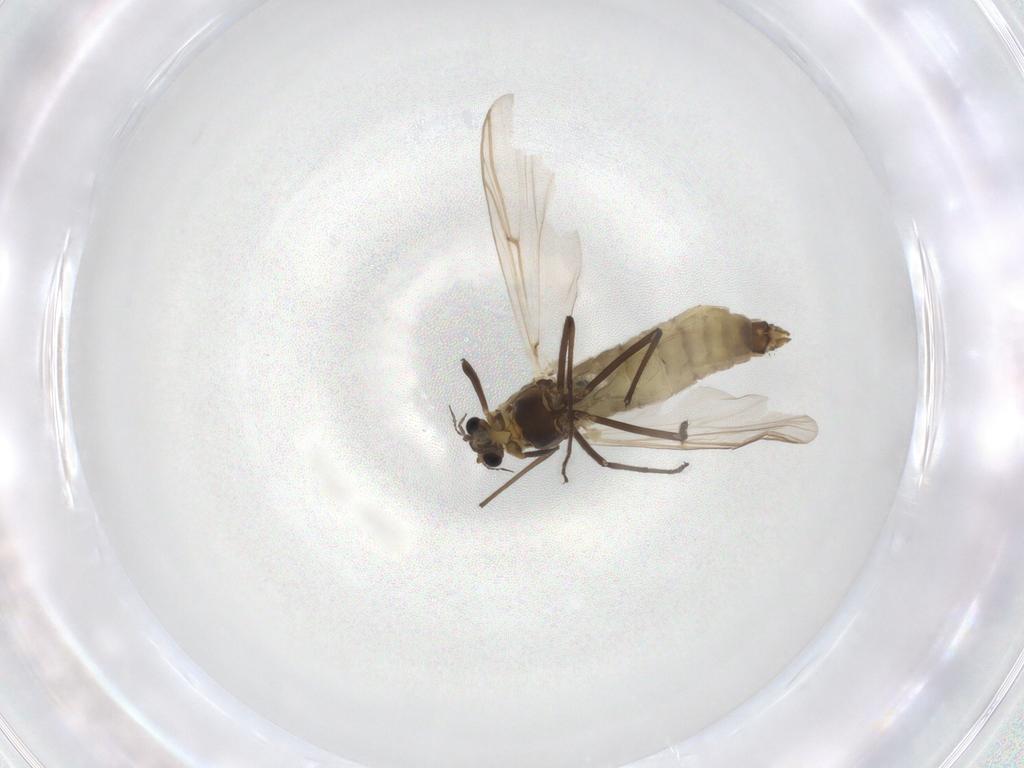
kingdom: Animalia
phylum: Arthropoda
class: Insecta
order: Diptera
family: Chironomidae
